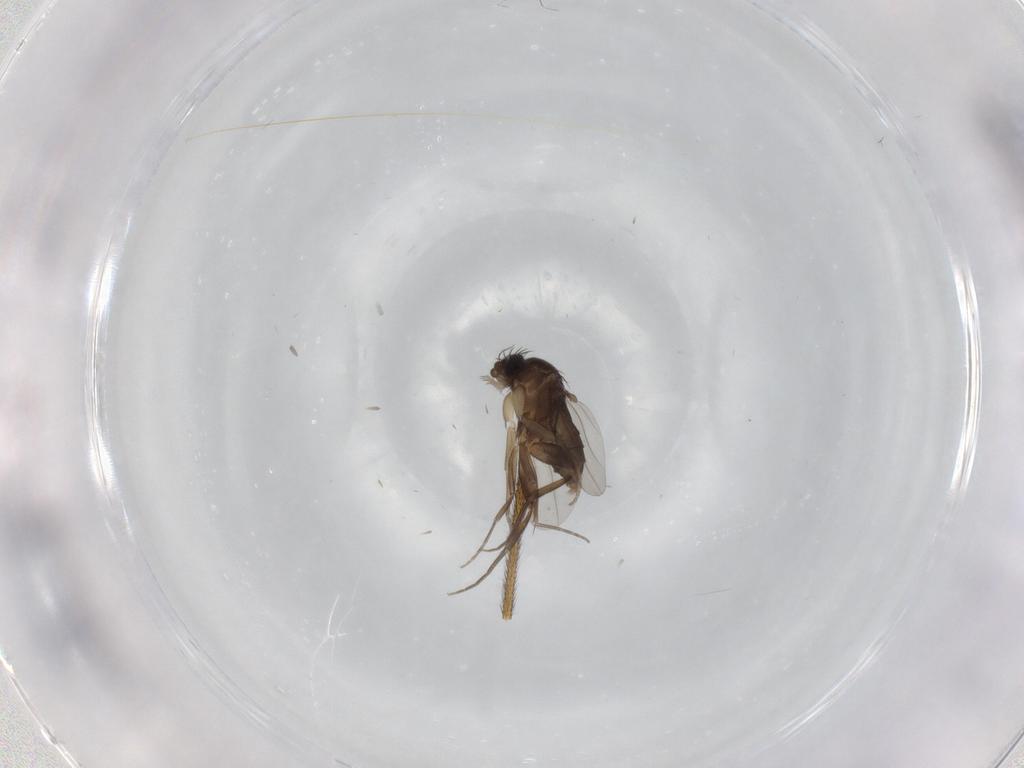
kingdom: Animalia
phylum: Arthropoda
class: Insecta
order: Diptera
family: Phoridae
